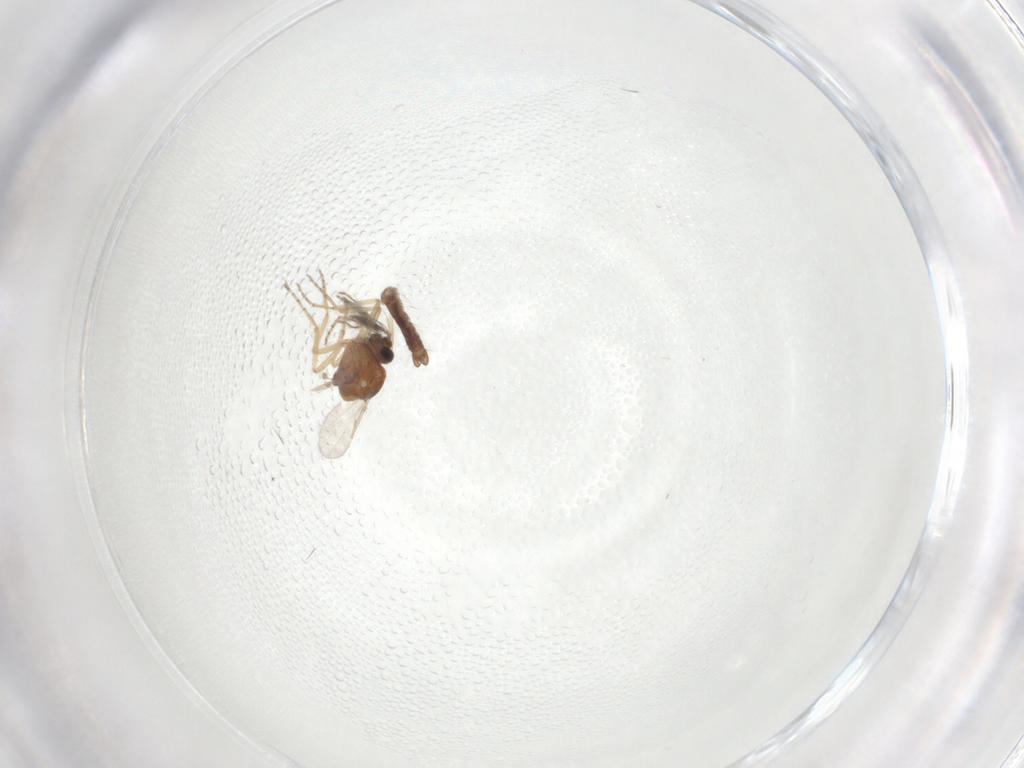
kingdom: Animalia
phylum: Arthropoda
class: Insecta
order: Diptera
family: Ceratopogonidae
